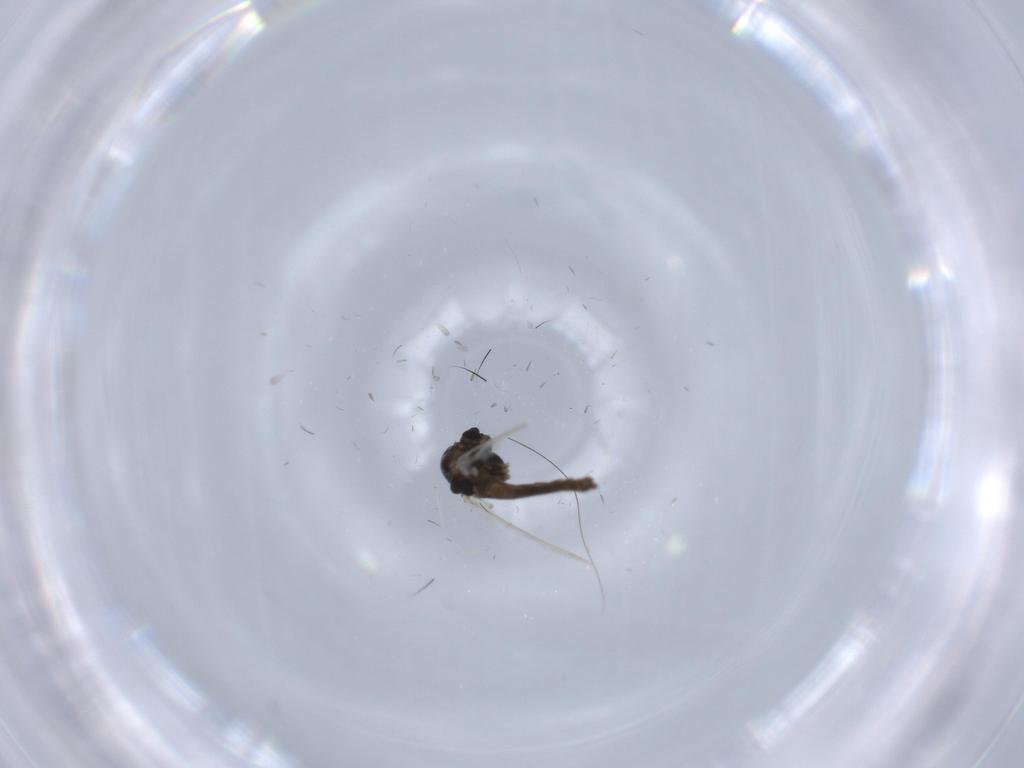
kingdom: Animalia
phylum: Arthropoda
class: Insecta
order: Diptera
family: Chironomidae
